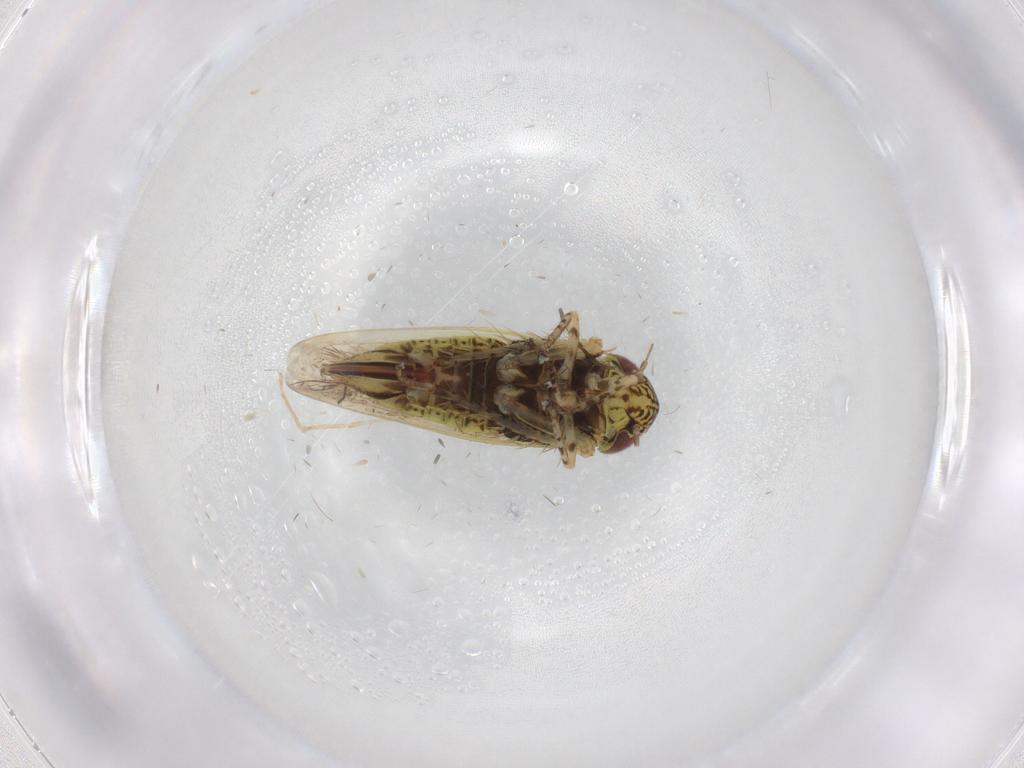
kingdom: Animalia
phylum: Arthropoda
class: Insecta
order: Hemiptera
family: Cicadellidae
